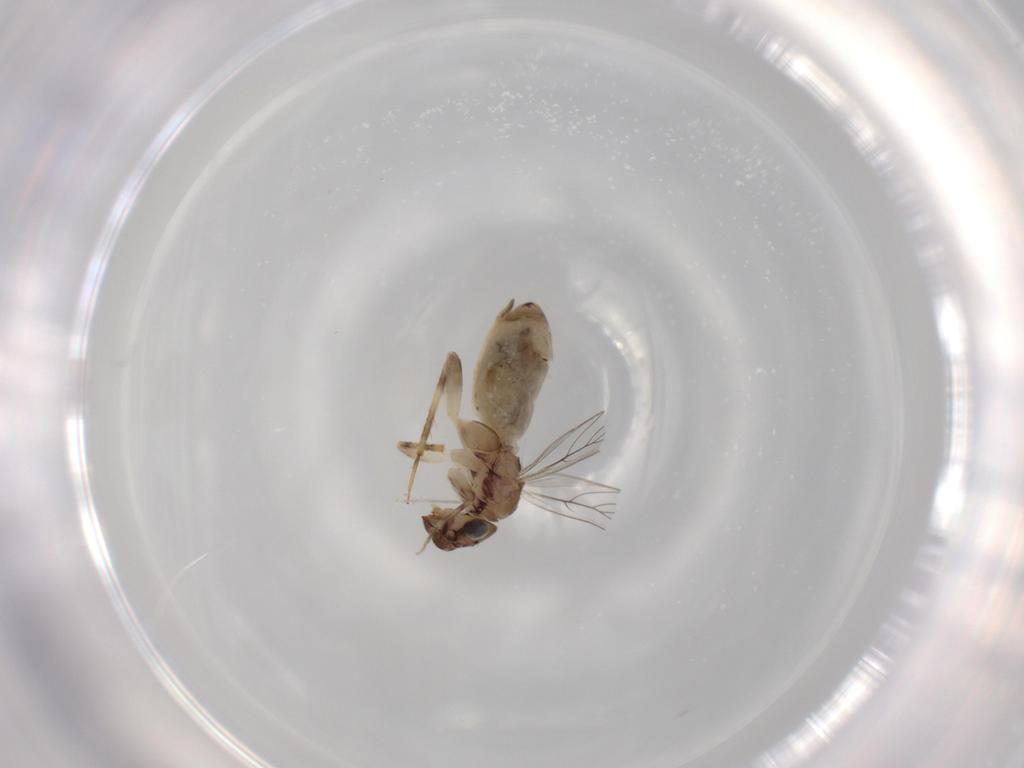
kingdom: Animalia
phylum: Arthropoda
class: Insecta
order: Psocodea
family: Lepidopsocidae
